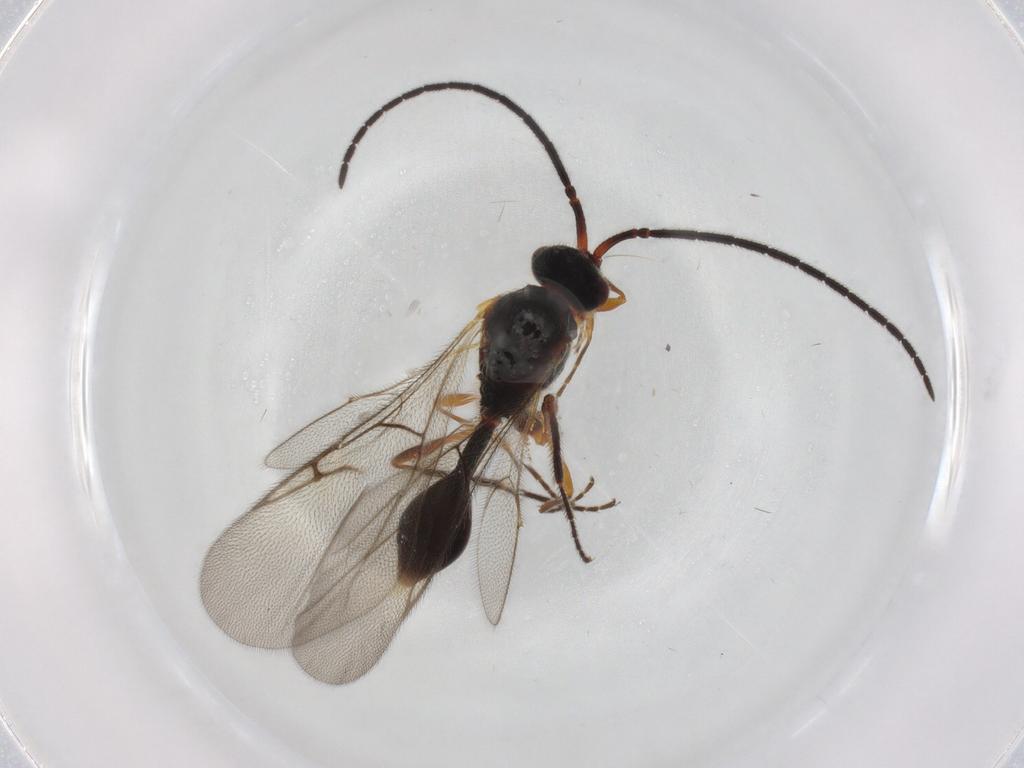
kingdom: Animalia
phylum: Arthropoda
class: Insecta
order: Hymenoptera
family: Diapriidae
